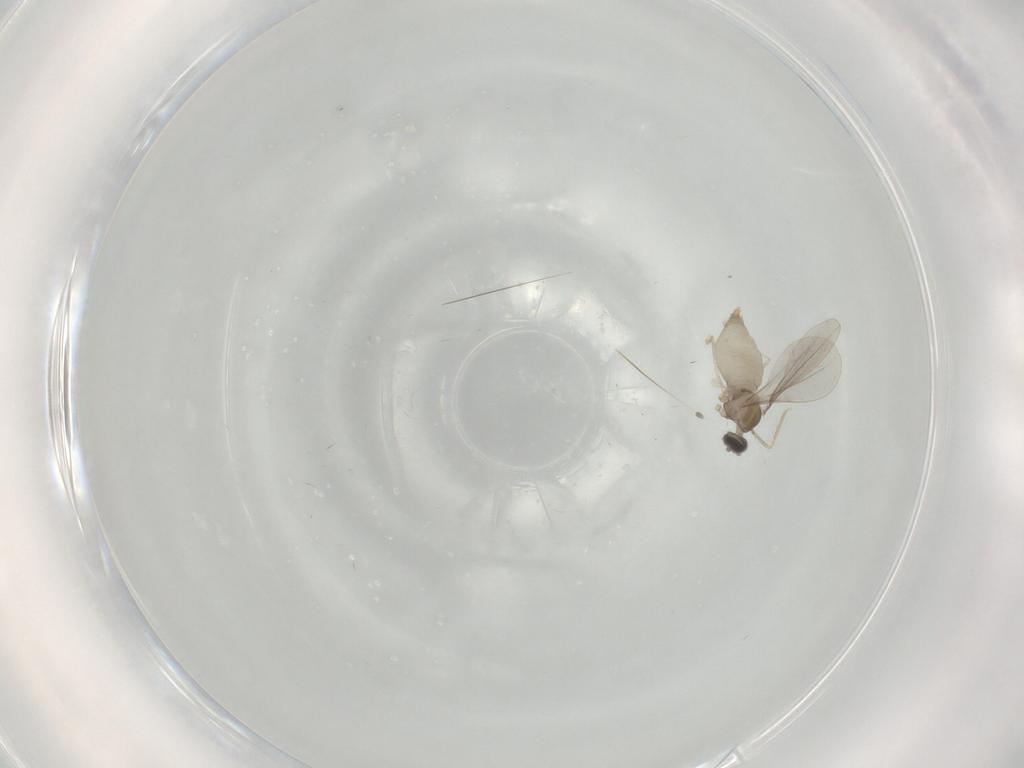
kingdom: Animalia
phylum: Arthropoda
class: Insecta
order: Diptera
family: Cecidomyiidae
